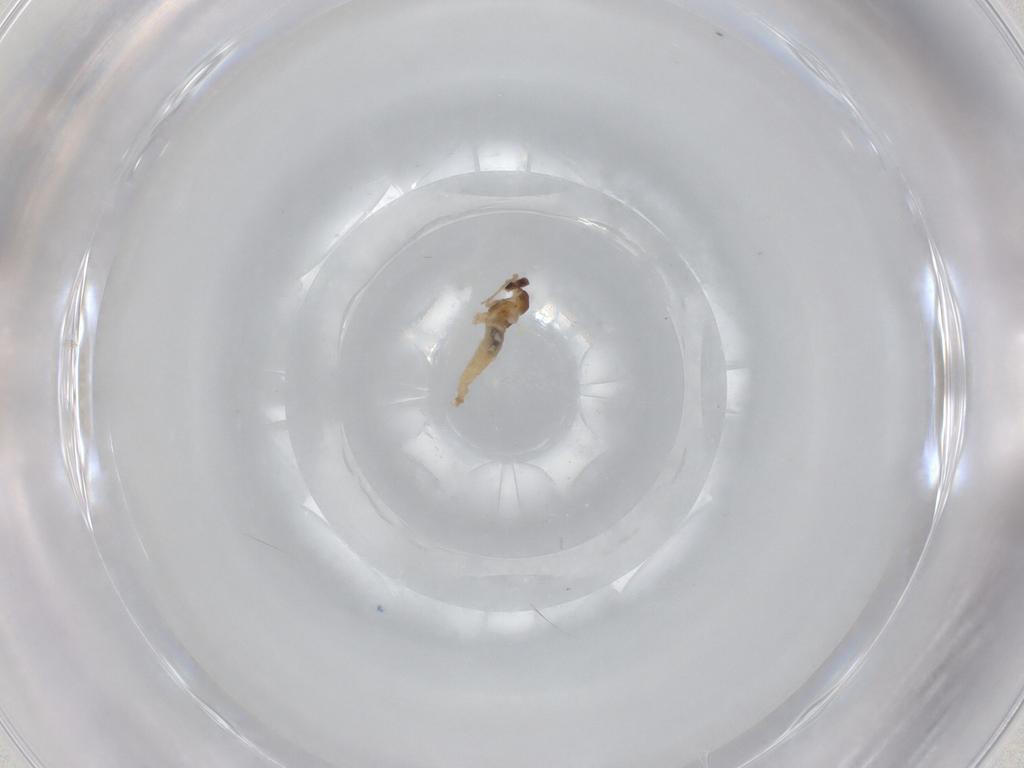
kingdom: Animalia
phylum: Arthropoda
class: Insecta
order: Diptera
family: Cecidomyiidae
